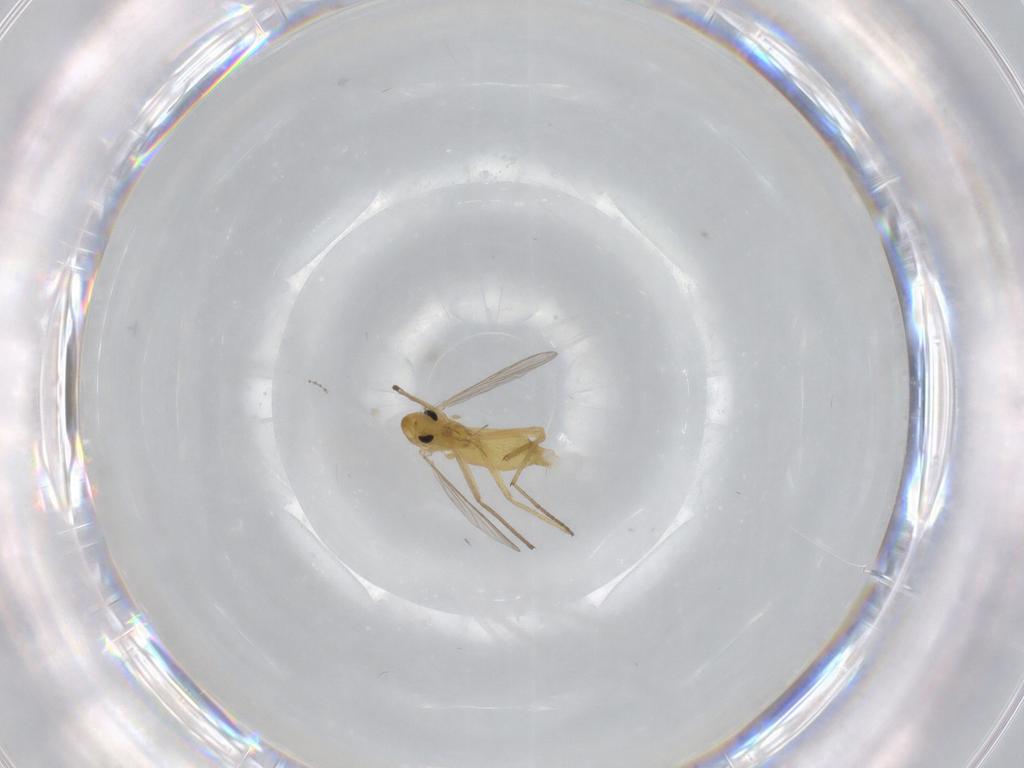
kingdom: Animalia
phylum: Arthropoda
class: Insecta
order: Diptera
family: Chironomidae
